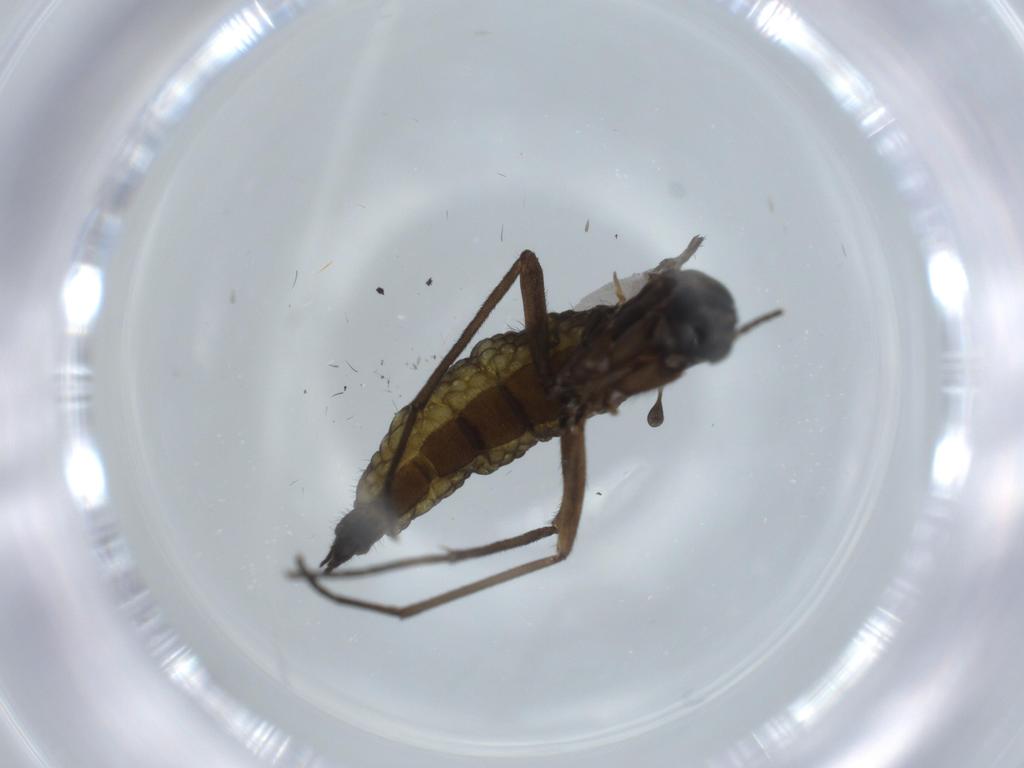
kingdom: Animalia
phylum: Arthropoda
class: Insecta
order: Diptera
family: Sciaridae
